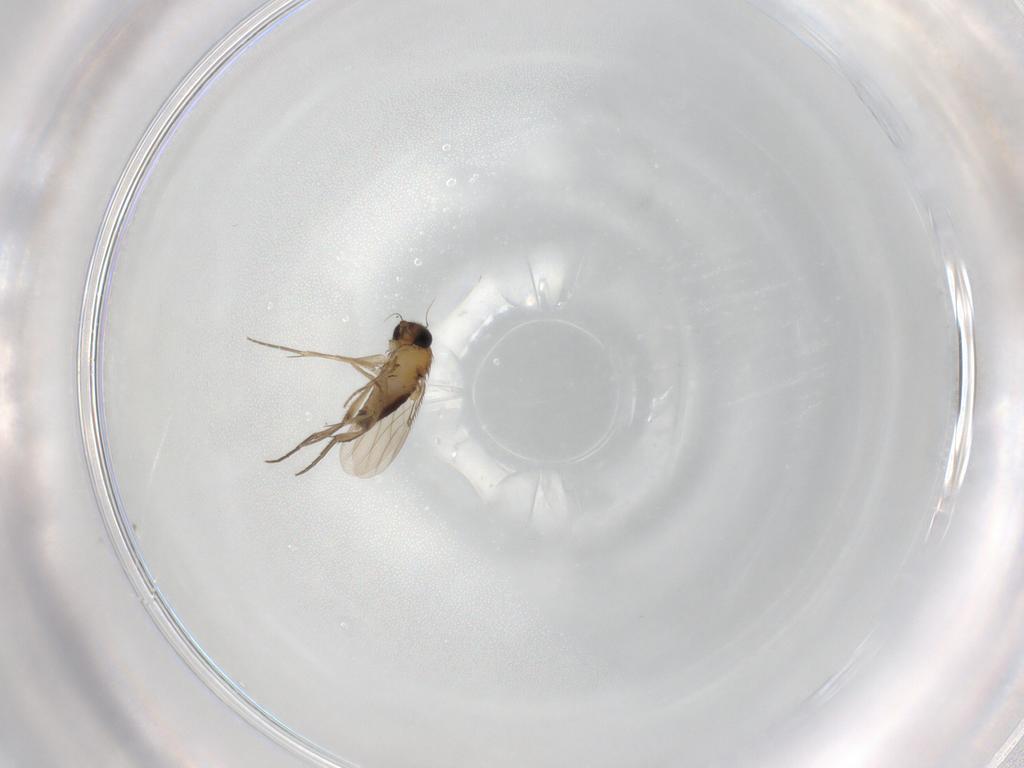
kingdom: Animalia
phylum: Arthropoda
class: Insecta
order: Diptera
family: Phoridae
